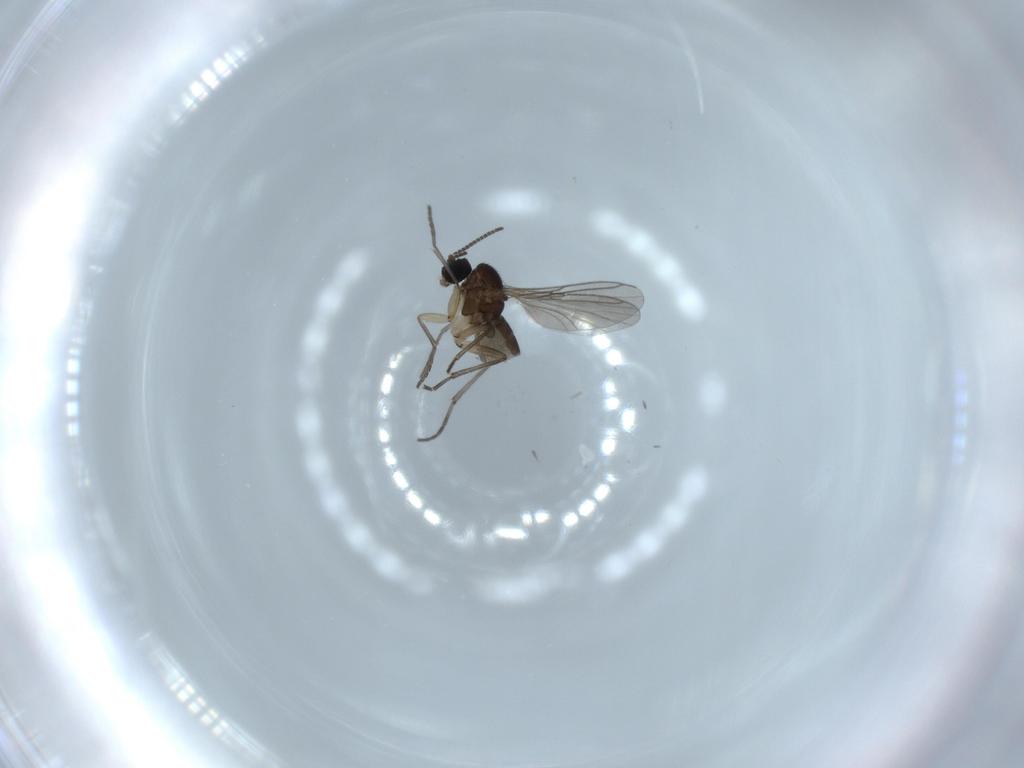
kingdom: Animalia
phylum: Arthropoda
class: Insecta
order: Diptera
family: Sciaridae
